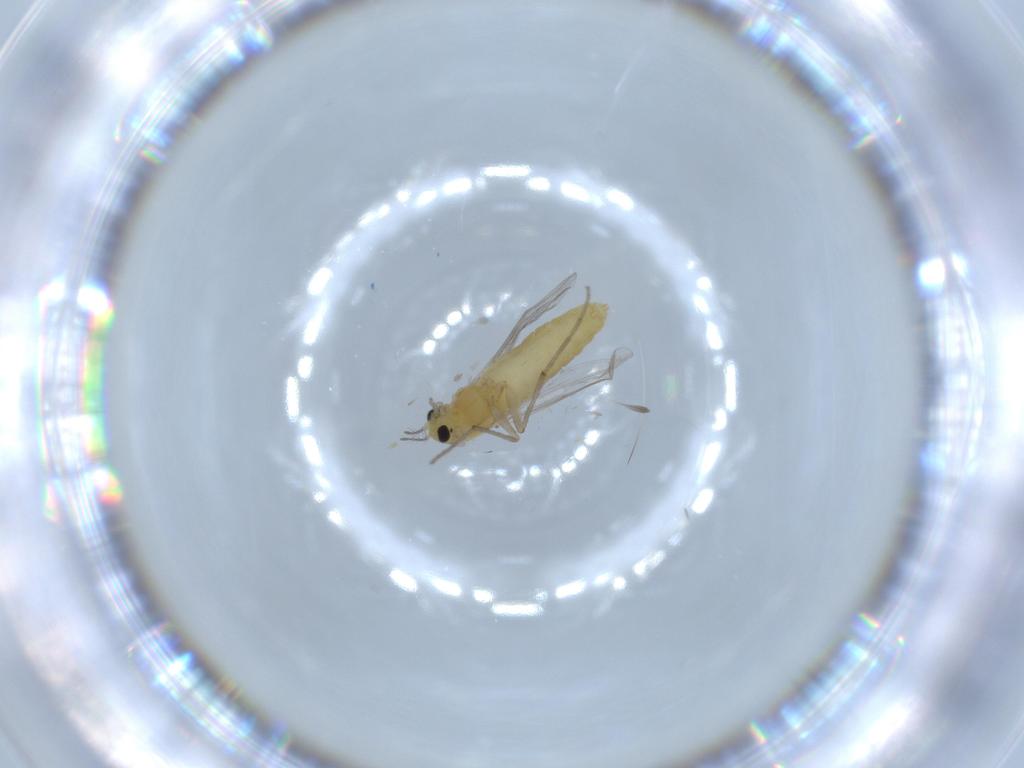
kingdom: Animalia
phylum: Arthropoda
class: Insecta
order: Diptera
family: Sciaridae
